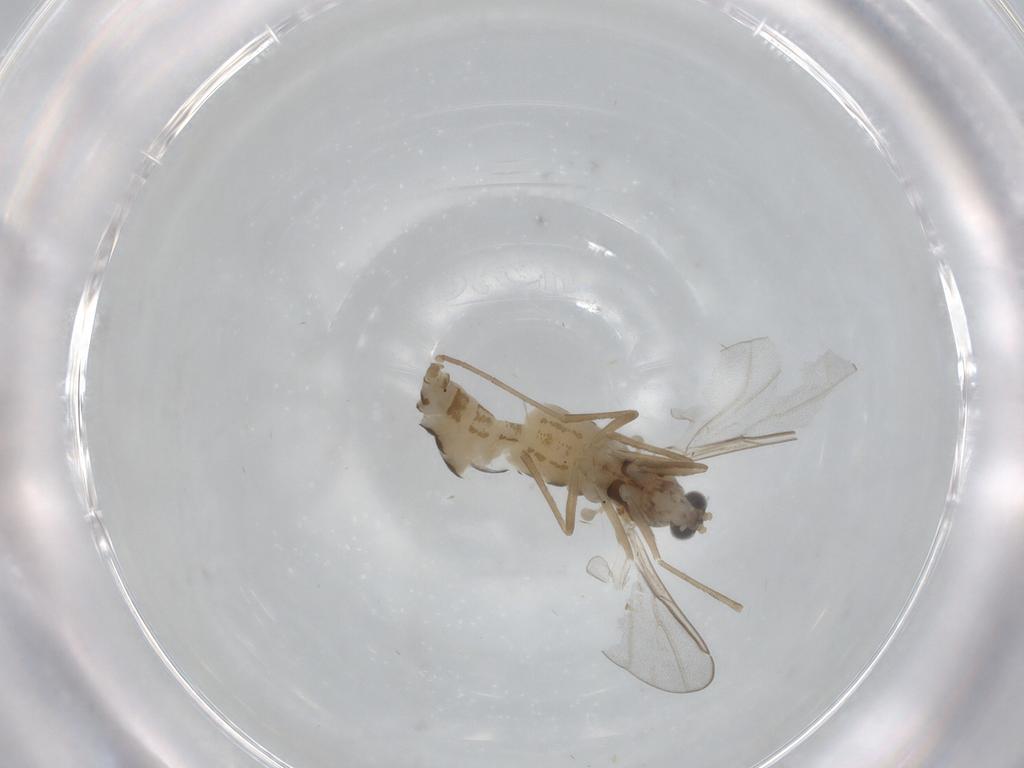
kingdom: Animalia
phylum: Arthropoda
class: Insecta
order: Diptera
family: Cecidomyiidae
